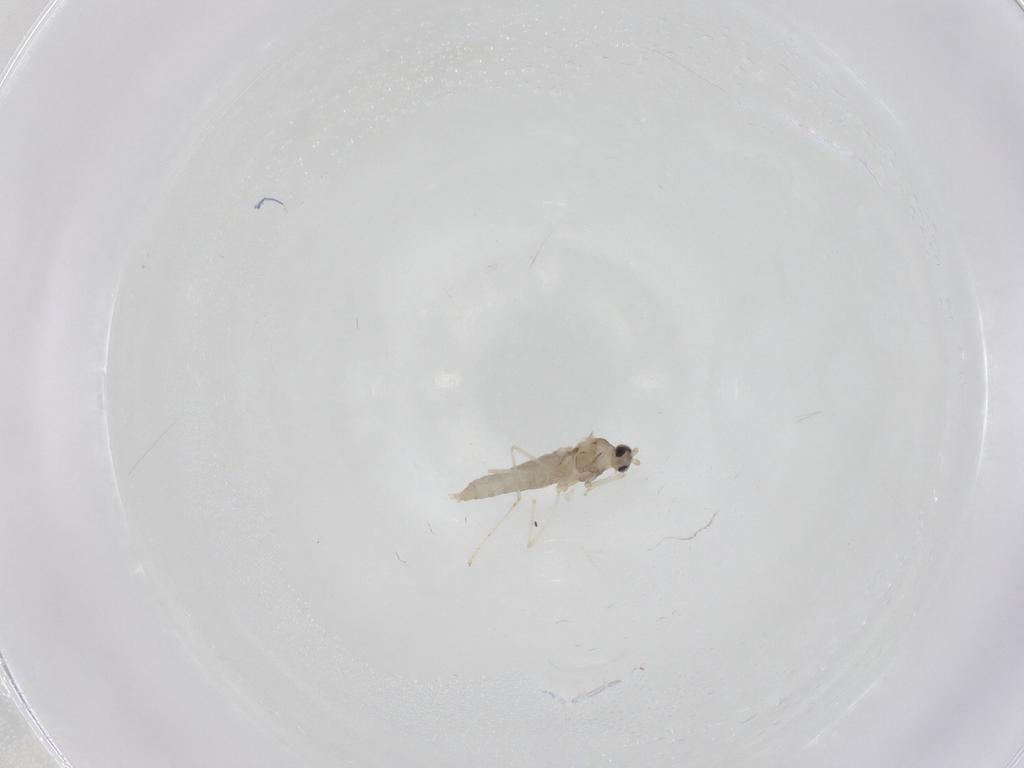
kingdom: Animalia
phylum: Arthropoda
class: Insecta
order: Diptera
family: Cecidomyiidae
